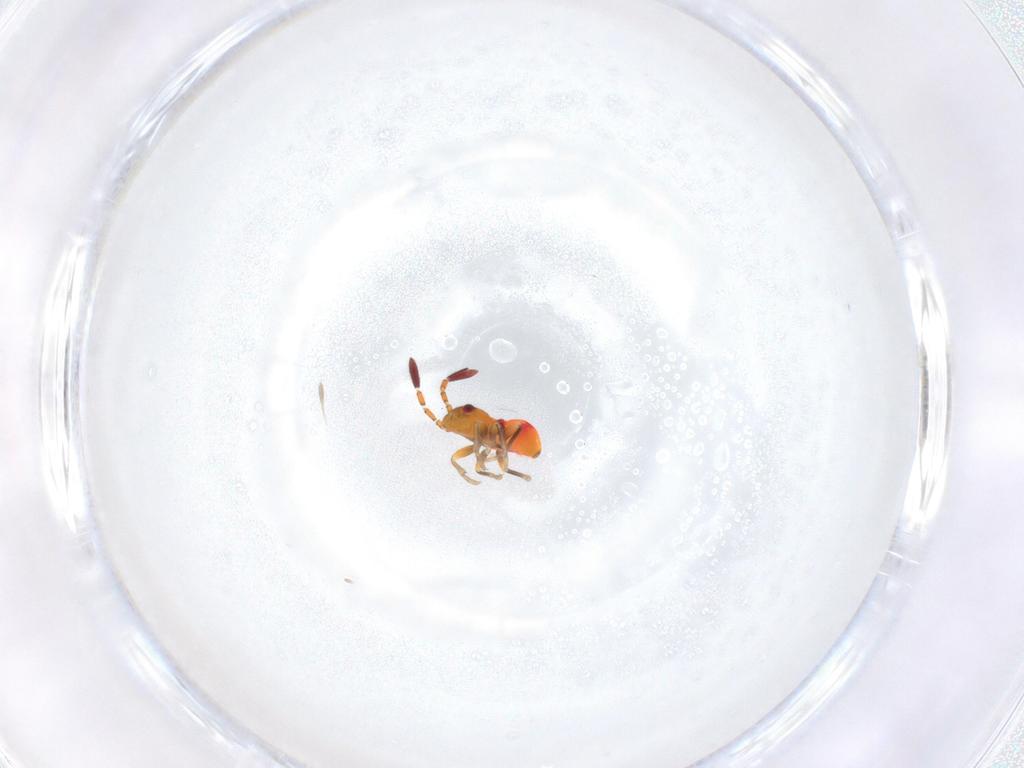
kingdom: Animalia
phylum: Arthropoda
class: Insecta
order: Hemiptera
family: Rhyparochromidae
